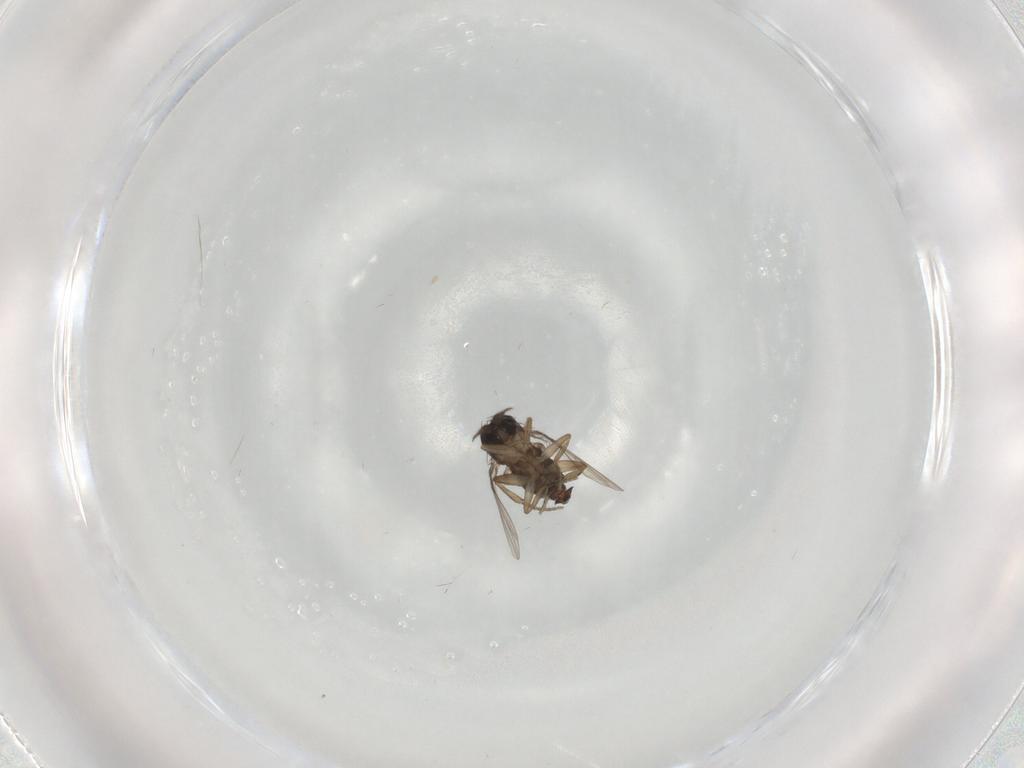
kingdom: Animalia
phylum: Arthropoda
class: Insecta
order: Diptera
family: Phoridae
